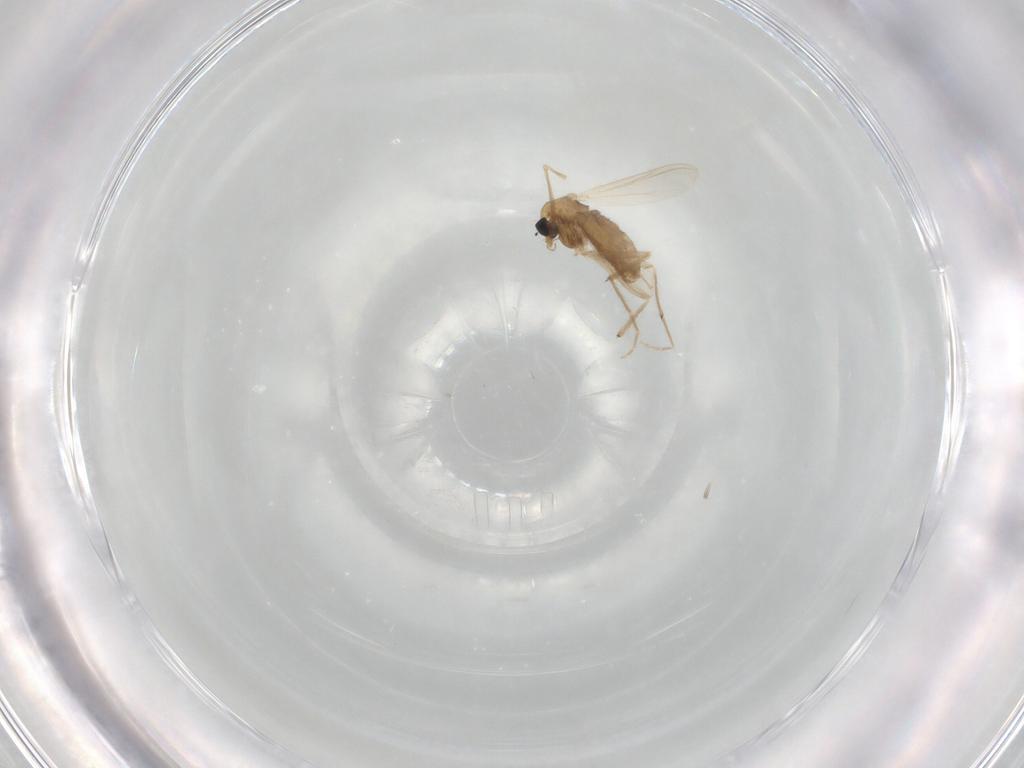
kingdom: Animalia
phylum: Arthropoda
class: Insecta
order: Diptera
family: Chironomidae
